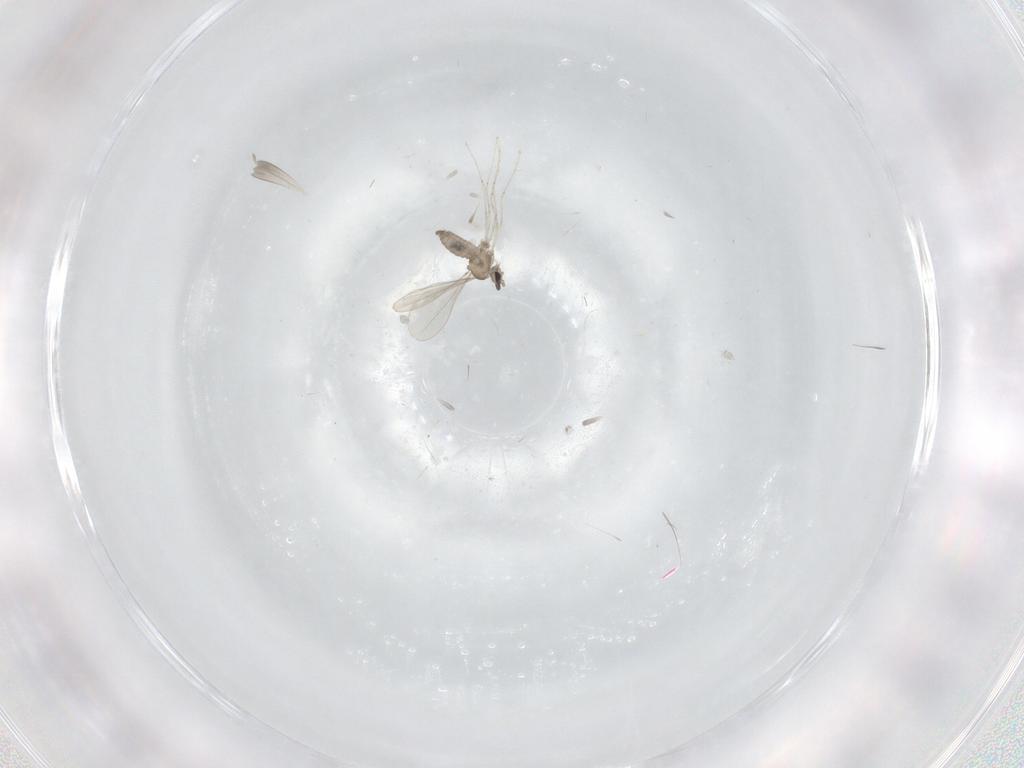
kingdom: Animalia
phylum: Arthropoda
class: Insecta
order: Diptera
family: Cecidomyiidae
